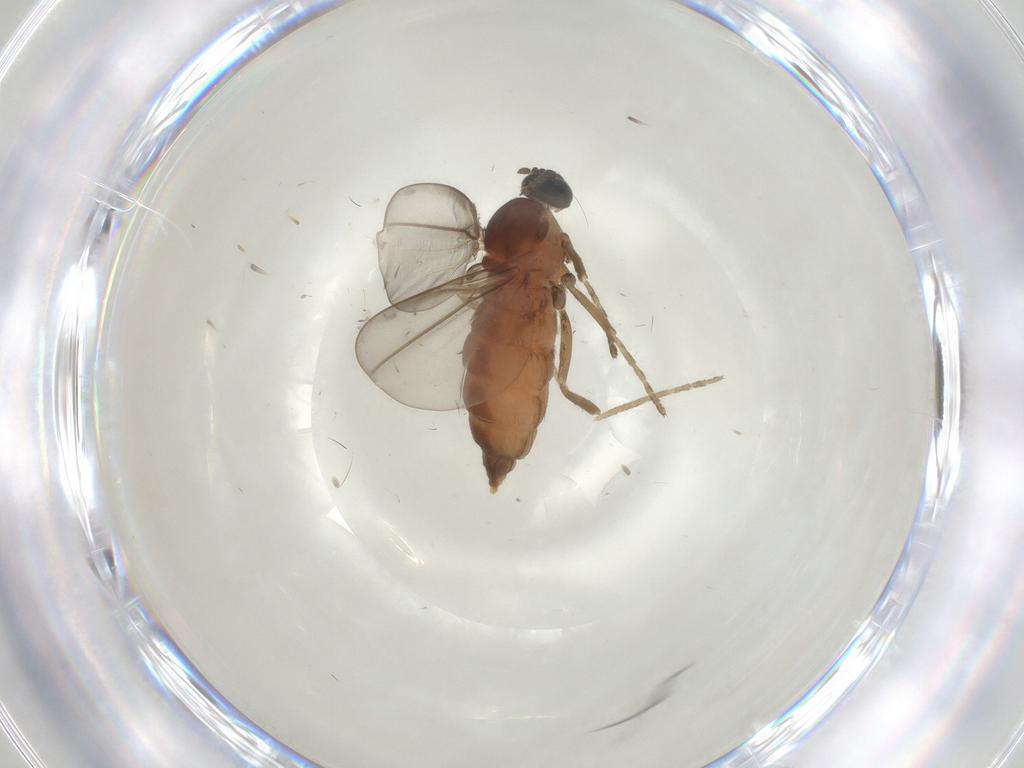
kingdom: Animalia
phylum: Arthropoda
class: Insecta
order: Diptera
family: Cecidomyiidae
